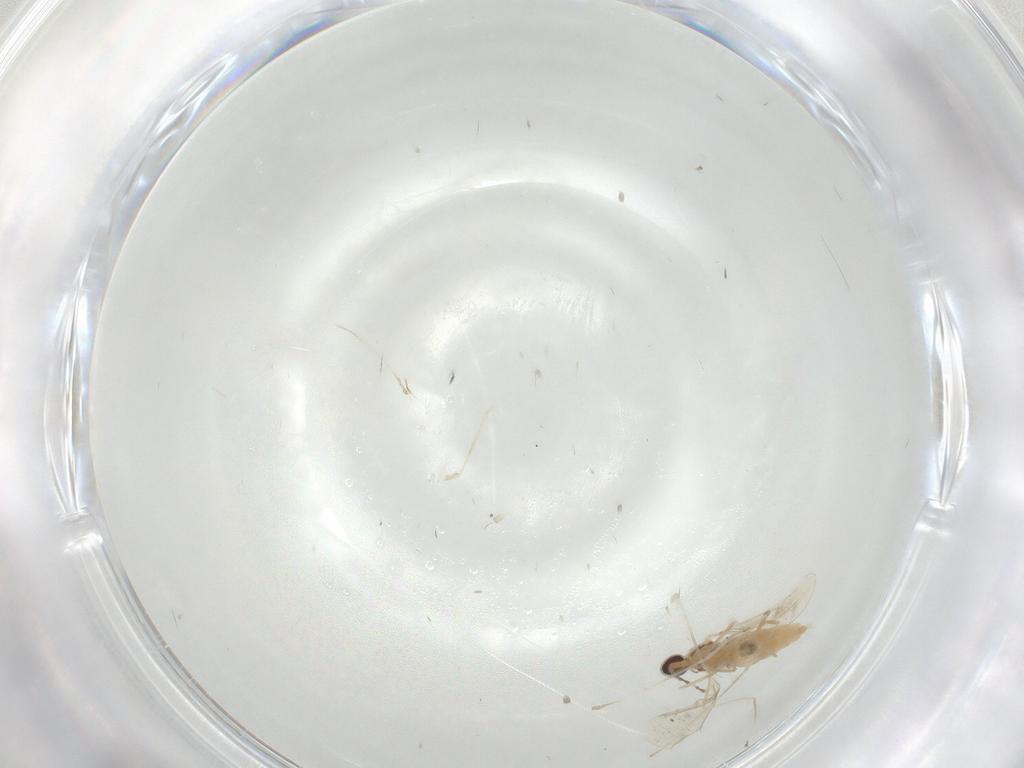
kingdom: Animalia
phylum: Arthropoda
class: Insecta
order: Diptera
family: Cecidomyiidae
